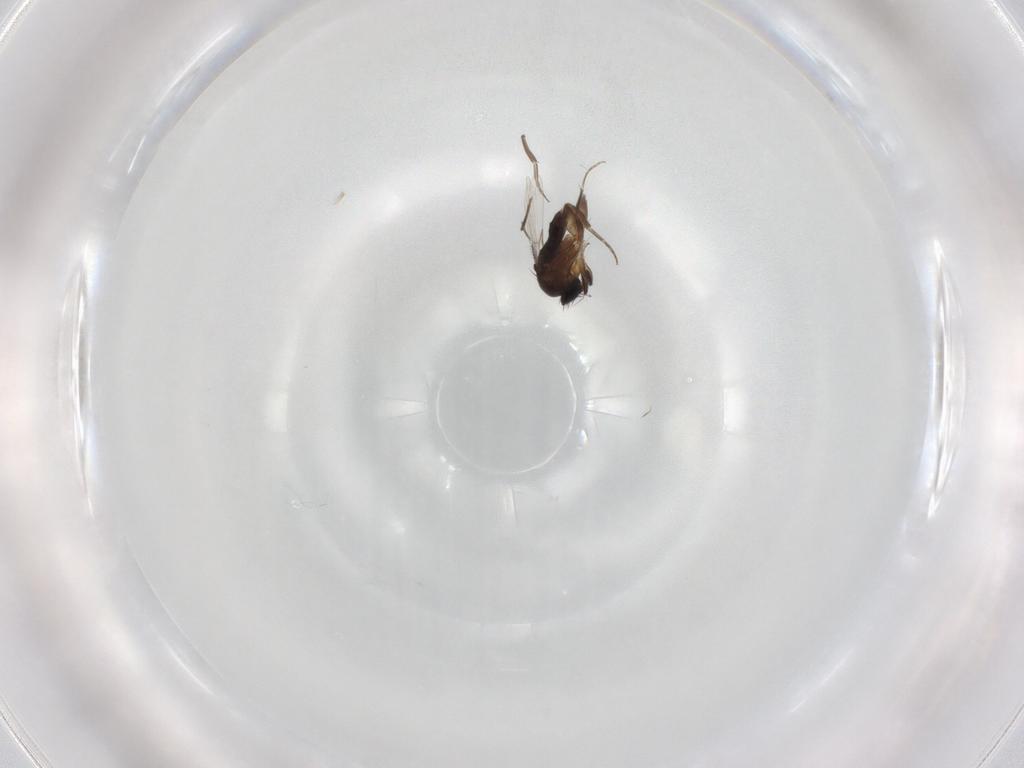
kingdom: Animalia
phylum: Arthropoda
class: Insecta
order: Diptera
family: Phoridae
